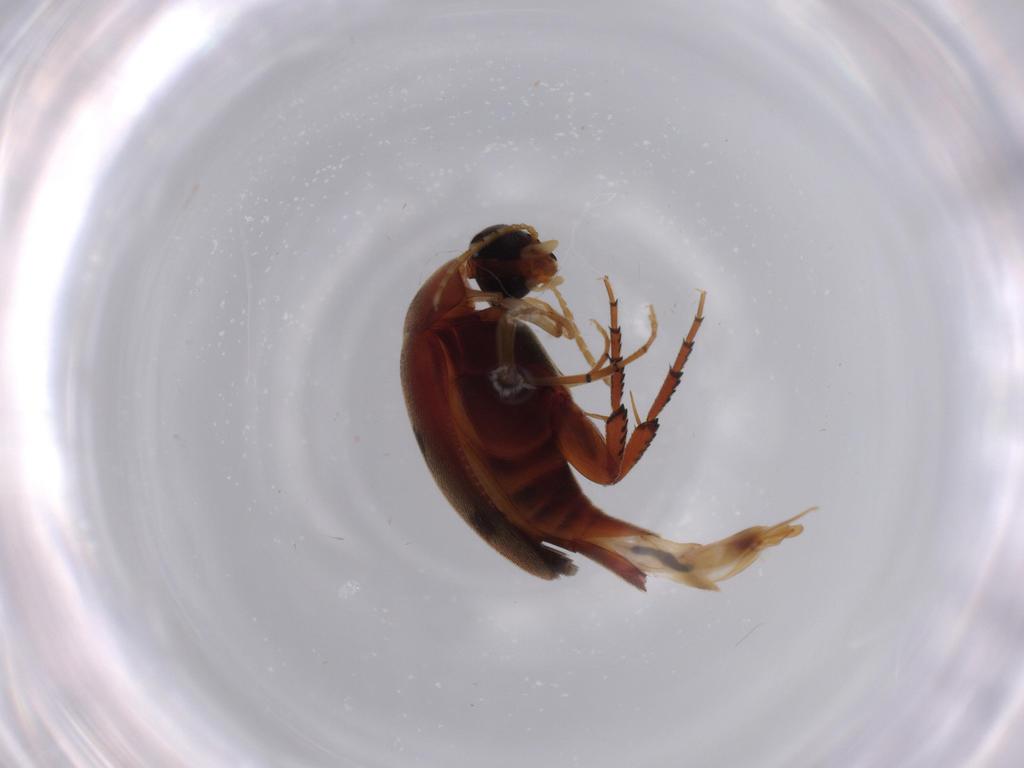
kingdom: Animalia
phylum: Arthropoda
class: Insecta
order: Coleoptera
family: Mordellidae
